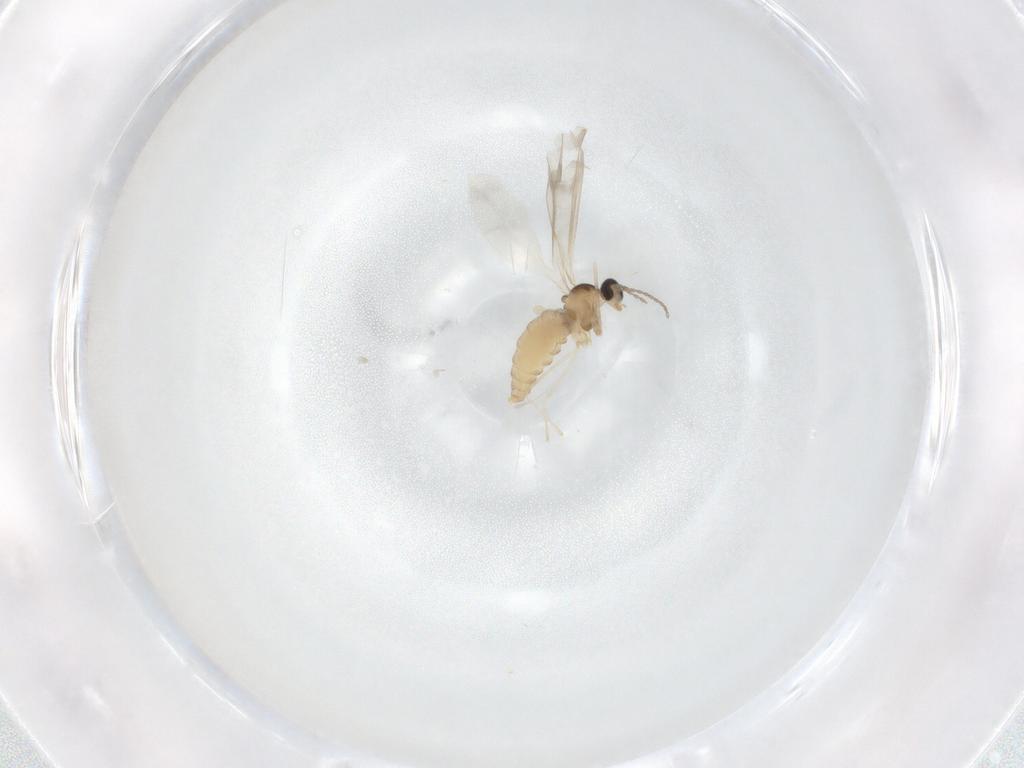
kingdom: Animalia
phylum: Arthropoda
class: Insecta
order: Diptera
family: Cecidomyiidae
